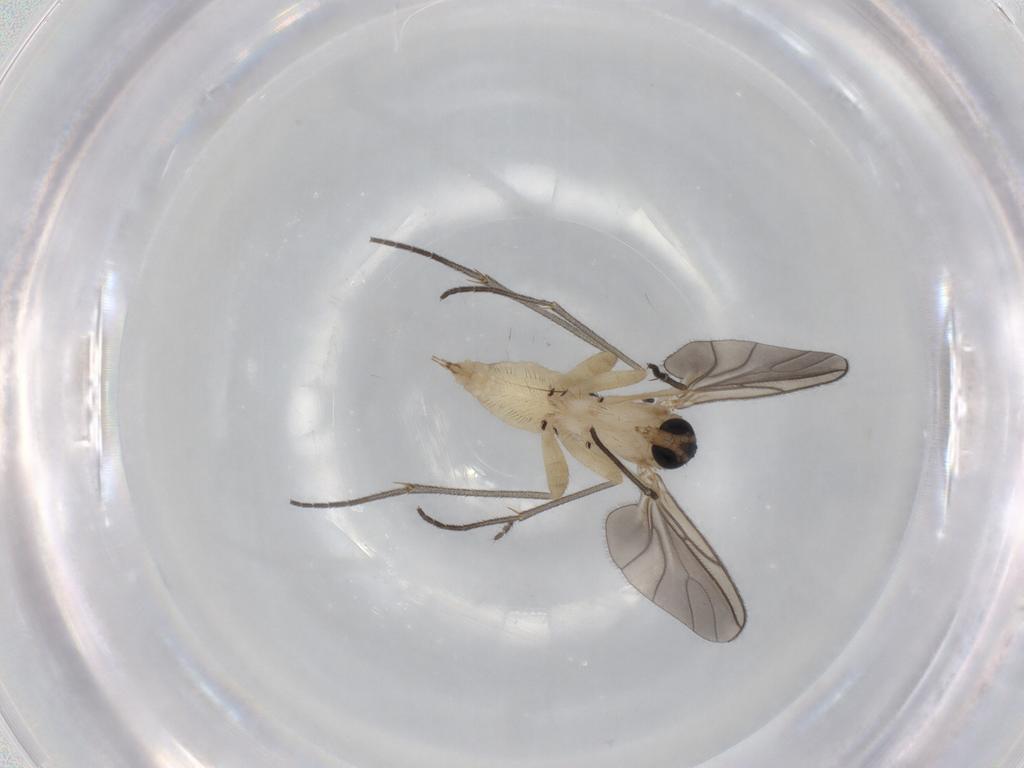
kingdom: Animalia
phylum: Arthropoda
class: Insecta
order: Diptera
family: Sciaridae
